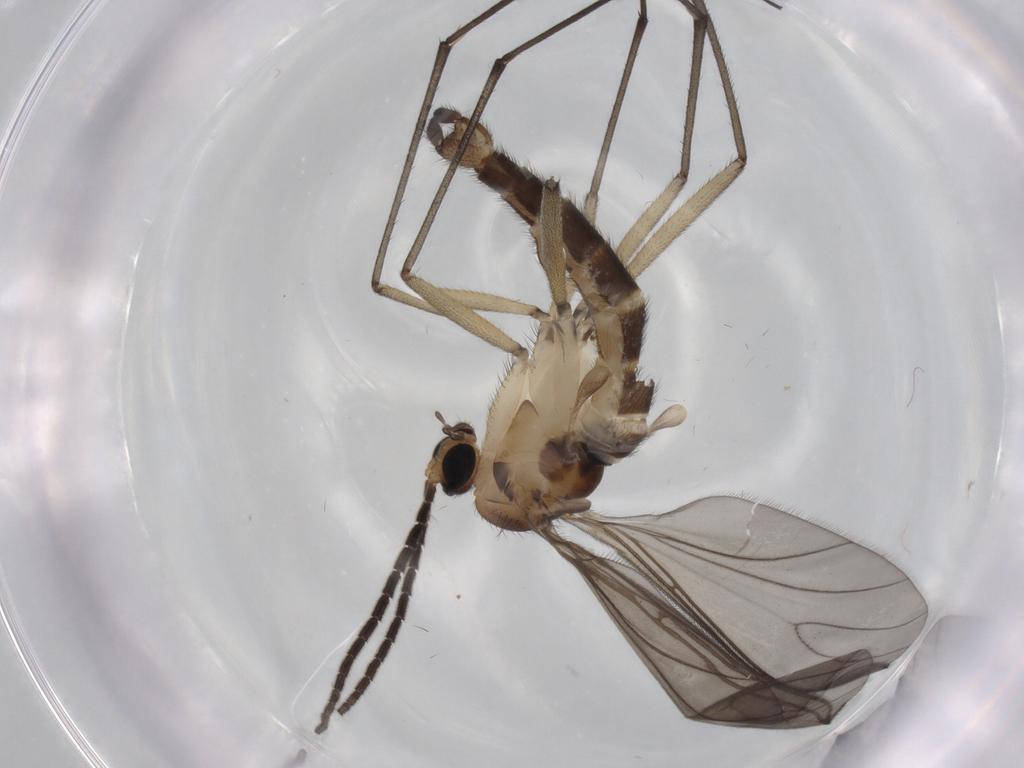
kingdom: Animalia
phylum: Arthropoda
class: Insecta
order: Diptera
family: Sciaridae
